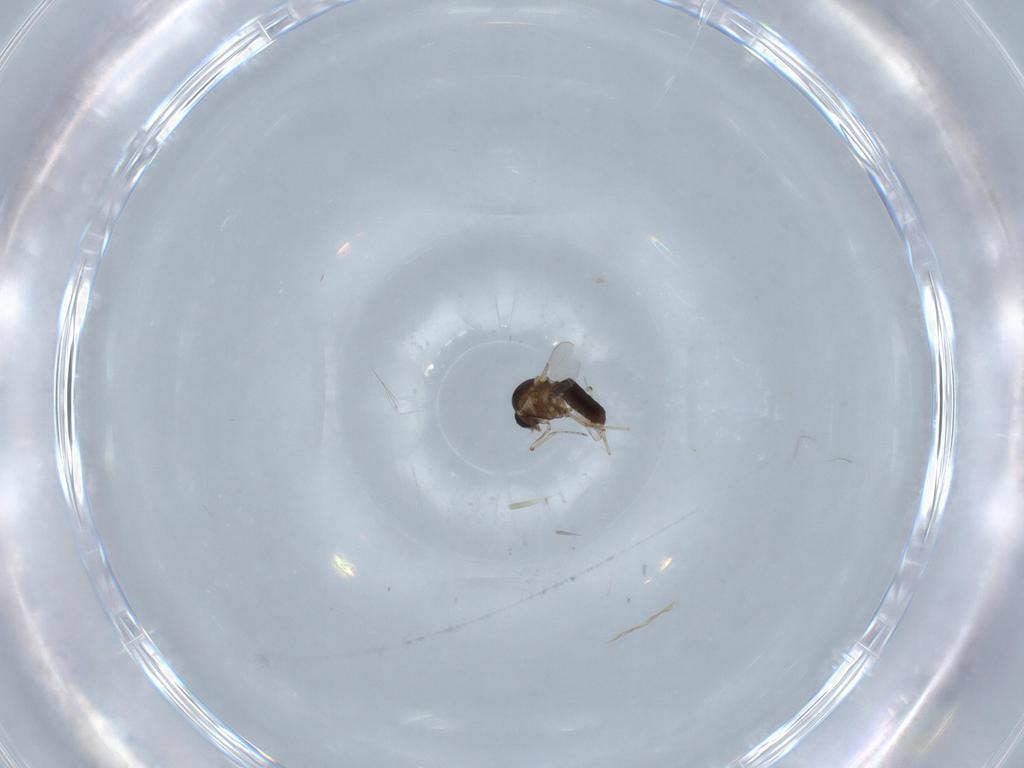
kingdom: Animalia
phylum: Arthropoda
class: Insecta
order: Diptera
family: Ceratopogonidae
